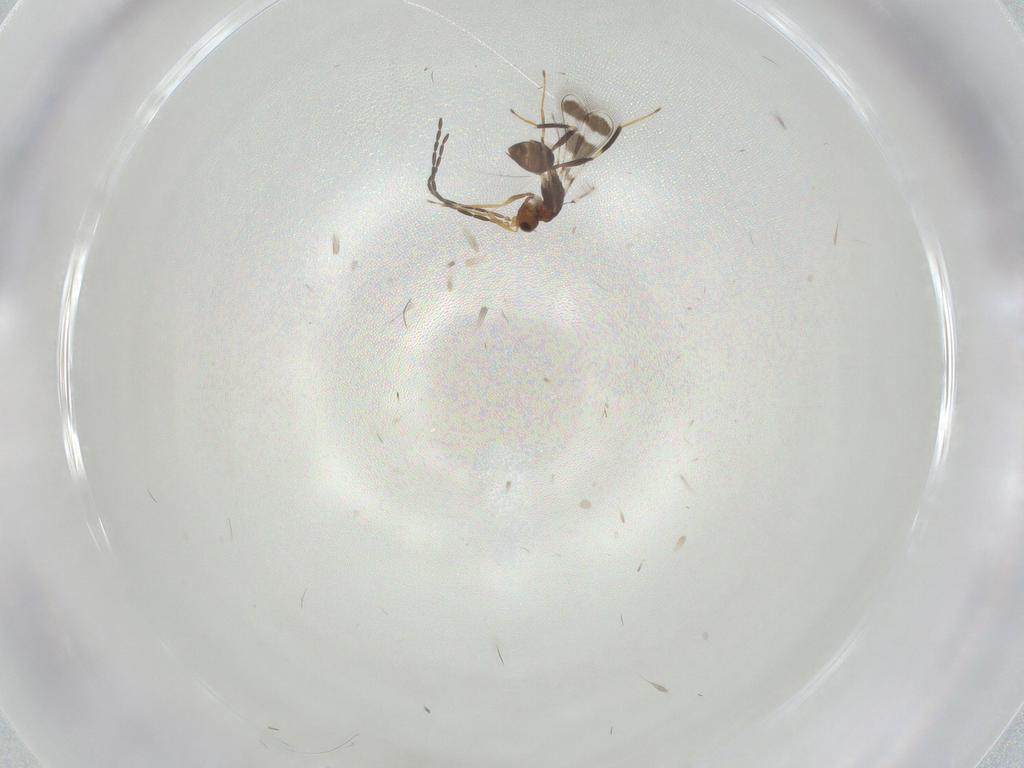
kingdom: Animalia
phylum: Arthropoda
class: Insecta
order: Hymenoptera
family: Mymaridae
